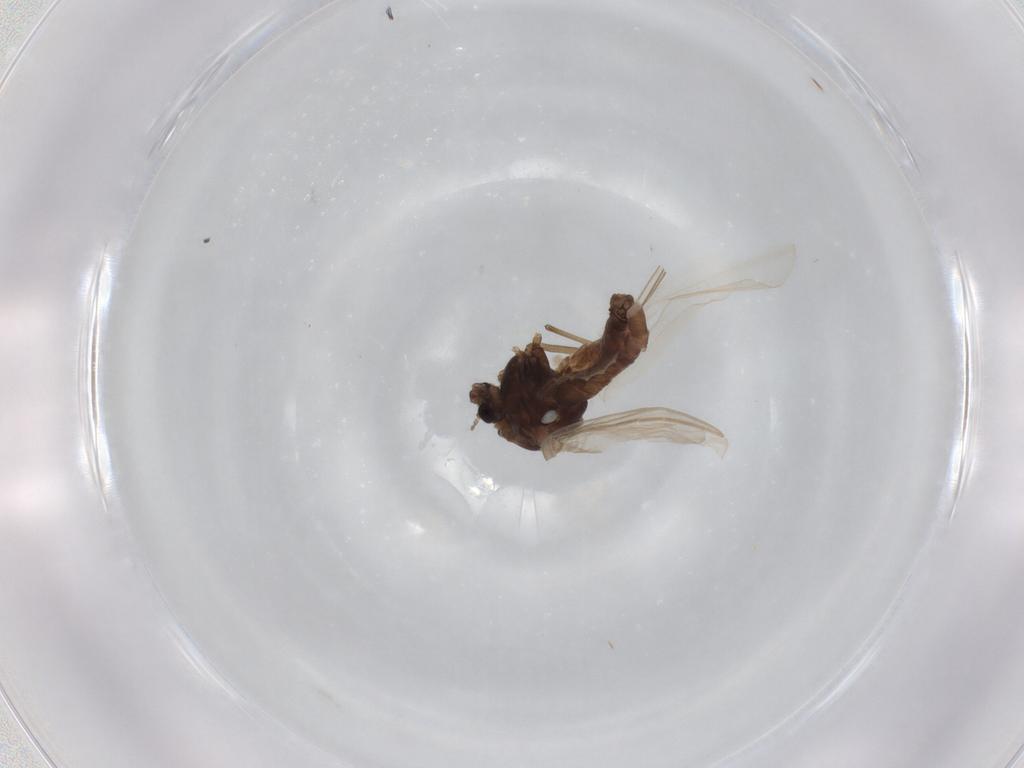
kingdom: Animalia
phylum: Arthropoda
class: Insecta
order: Diptera
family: Chironomidae
